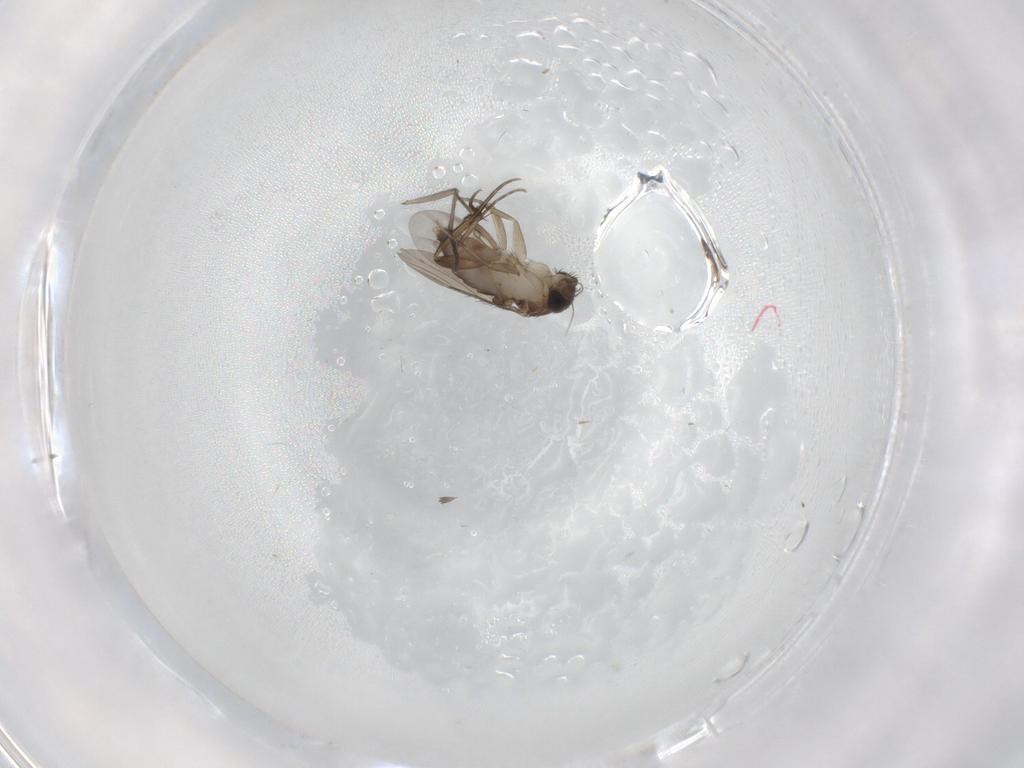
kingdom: Animalia
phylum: Arthropoda
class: Insecta
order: Diptera
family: Sciaridae
